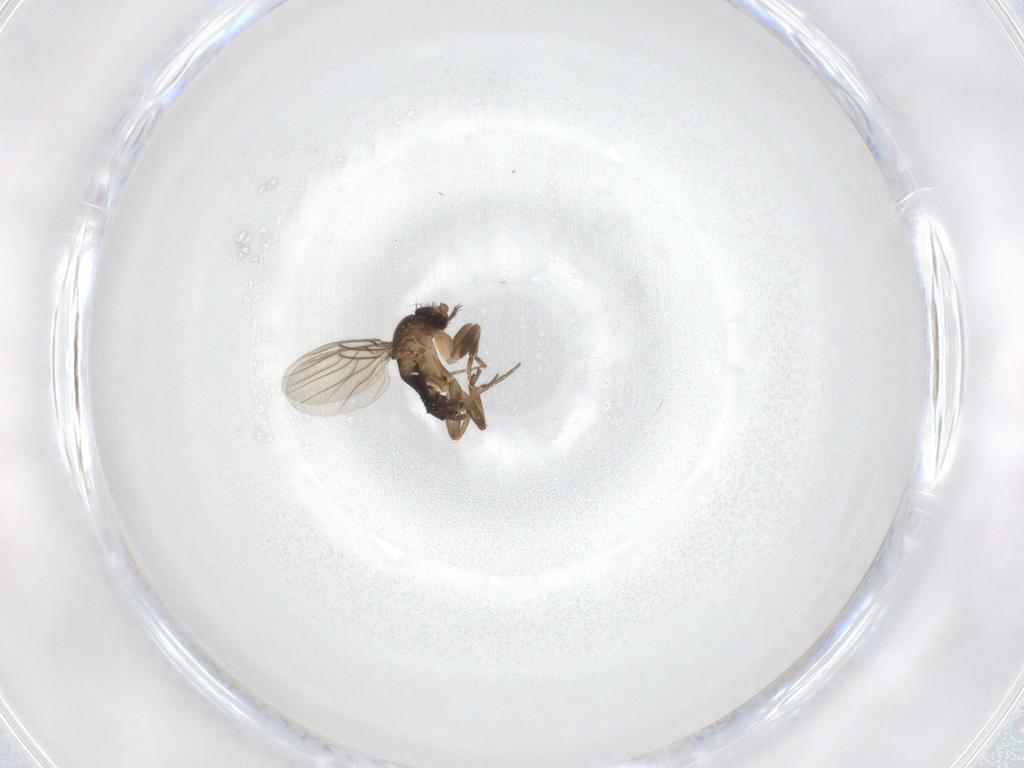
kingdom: Animalia
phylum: Arthropoda
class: Insecta
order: Diptera
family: Phoridae
